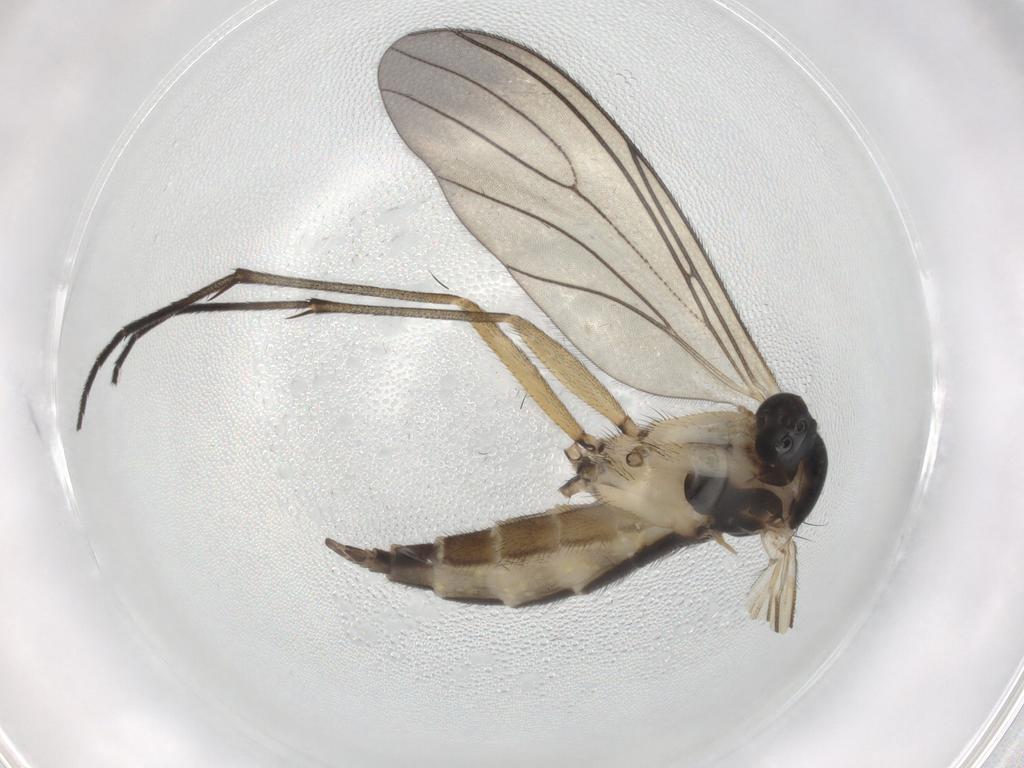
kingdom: Animalia
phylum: Arthropoda
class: Insecta
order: Diptera
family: Sciaridae
